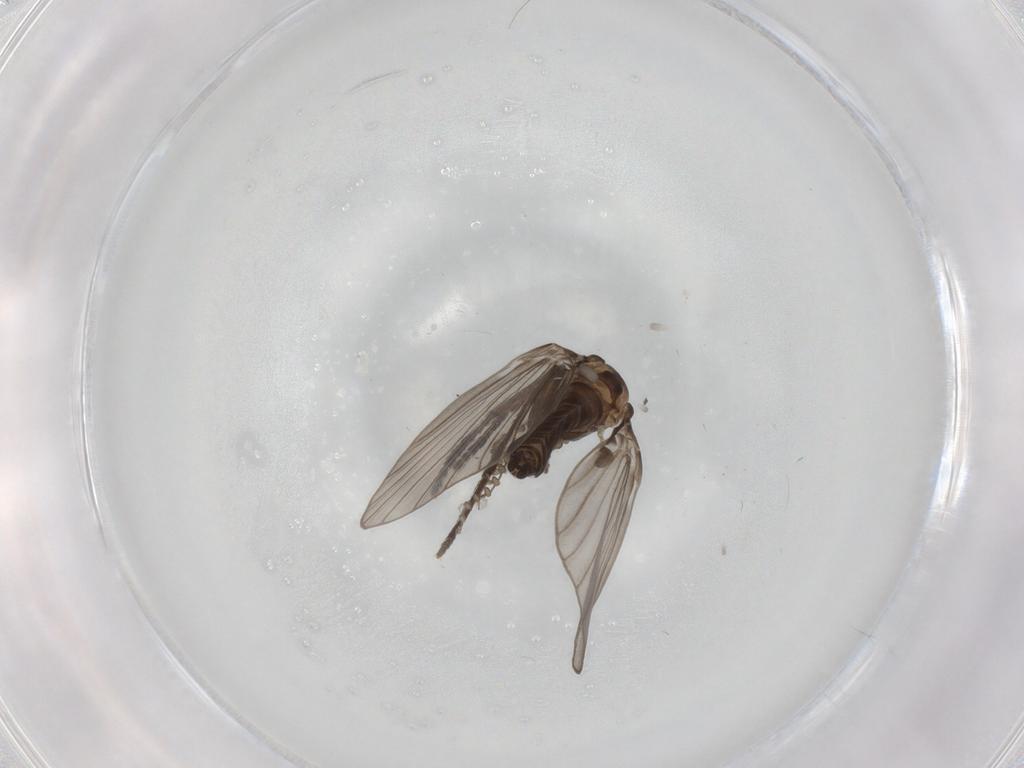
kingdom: Animalia
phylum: Arthropoda
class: Insecta
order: Diptera
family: Psychodidae
